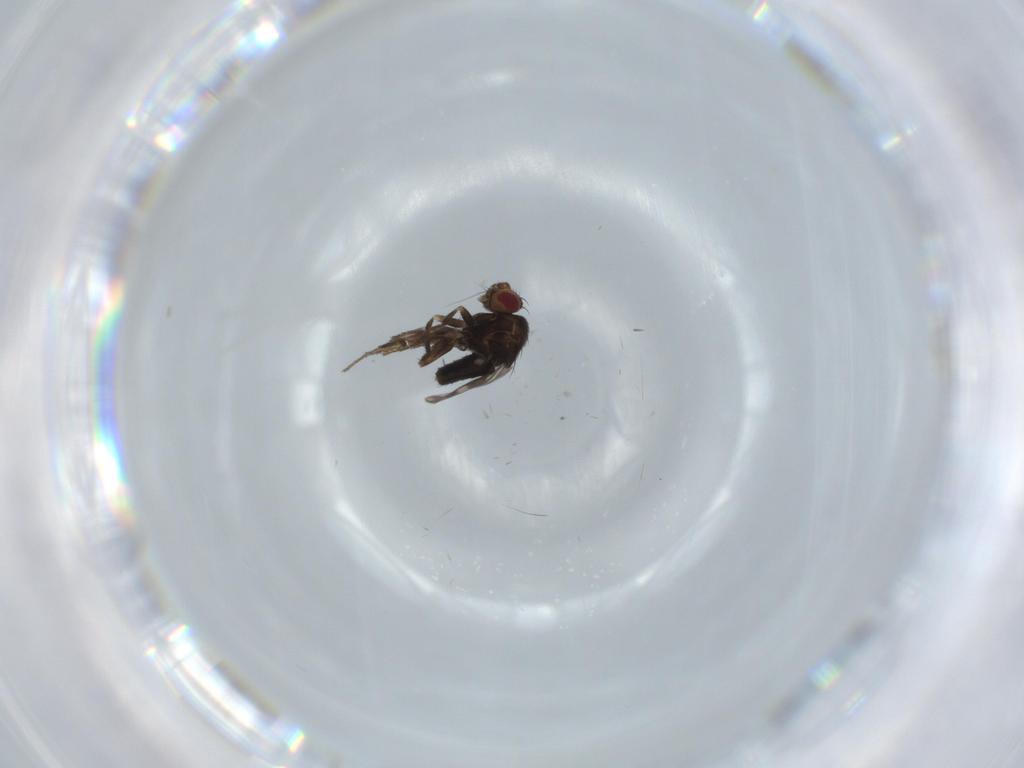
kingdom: Animalia
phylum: Arthropoda
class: Insecta
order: Diptera
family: Sphaeroceridae
